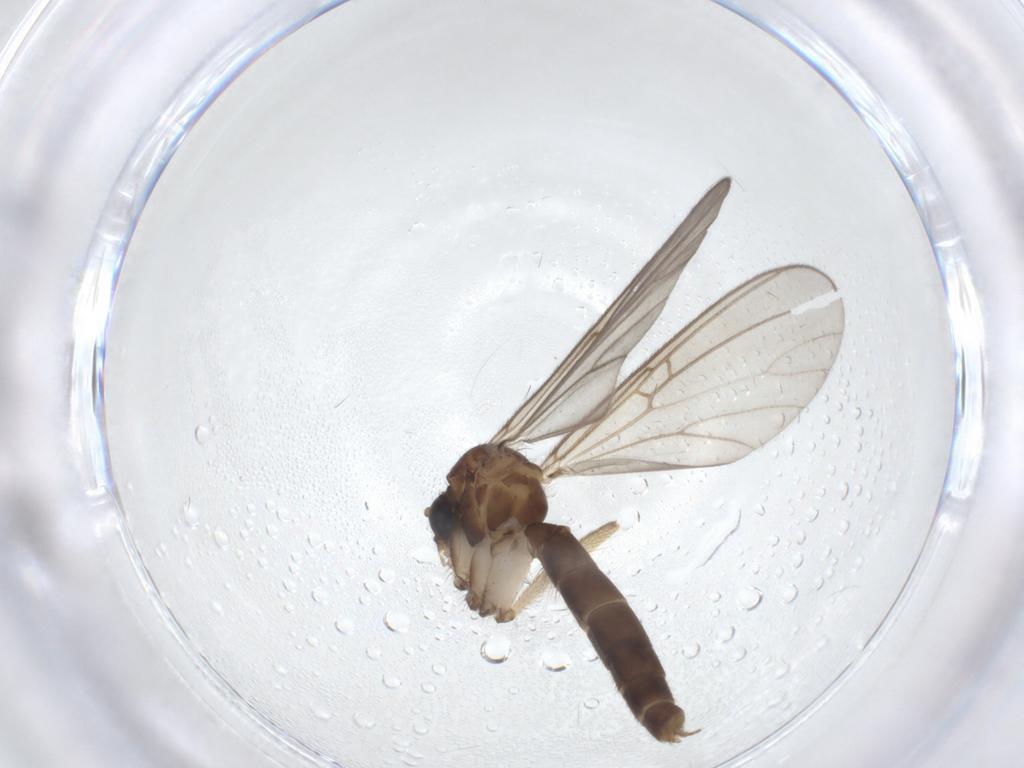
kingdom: Animalia
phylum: Arthropoda
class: Insecta
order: Diptera
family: Mycetophilidae
